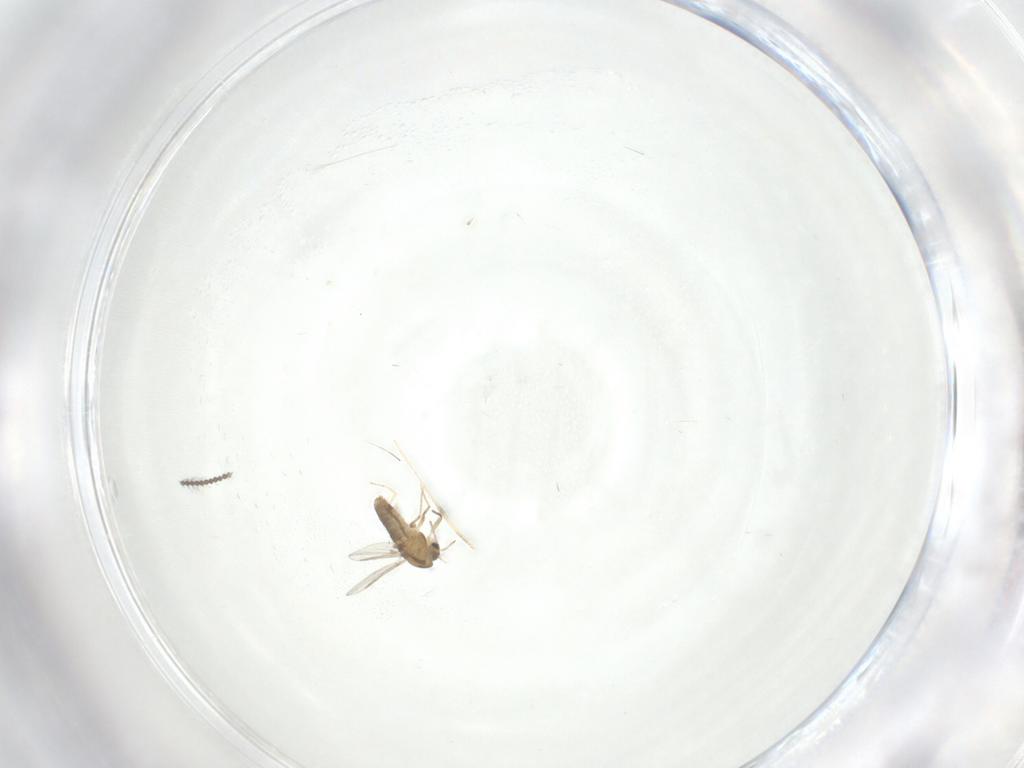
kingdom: Animalia
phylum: Arthropoda
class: Insecta
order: Diptera
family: Chironomidae
